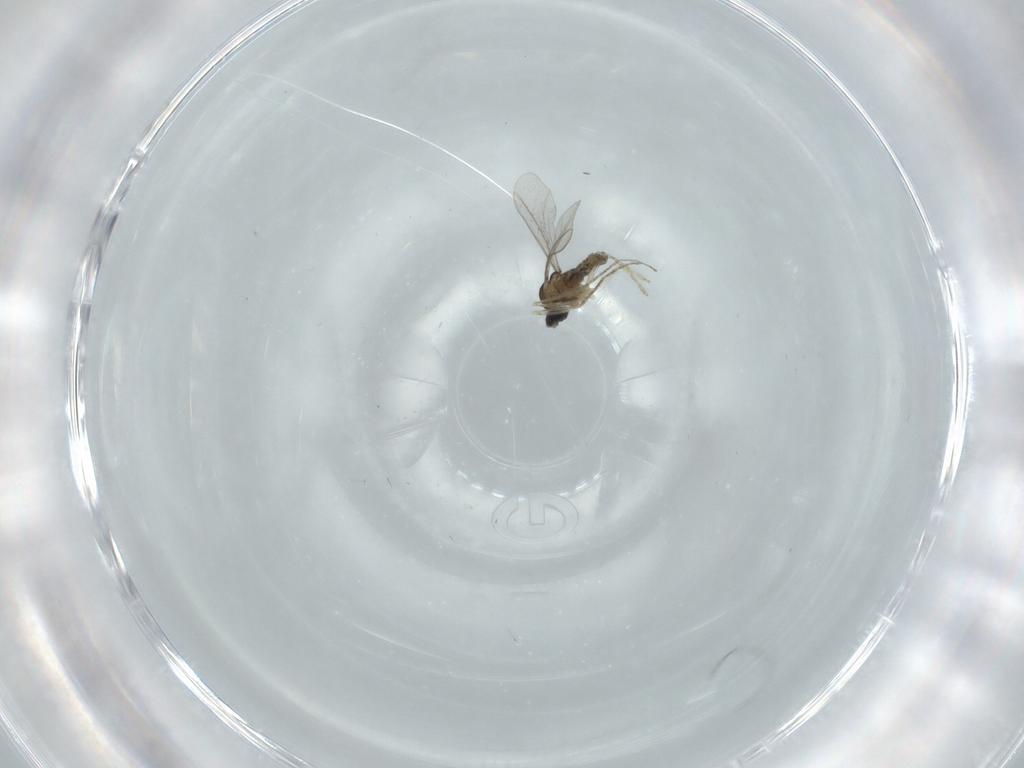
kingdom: Animalia
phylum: Arthropoda
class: Insecta
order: Diptera
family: Cecidomyiidae
